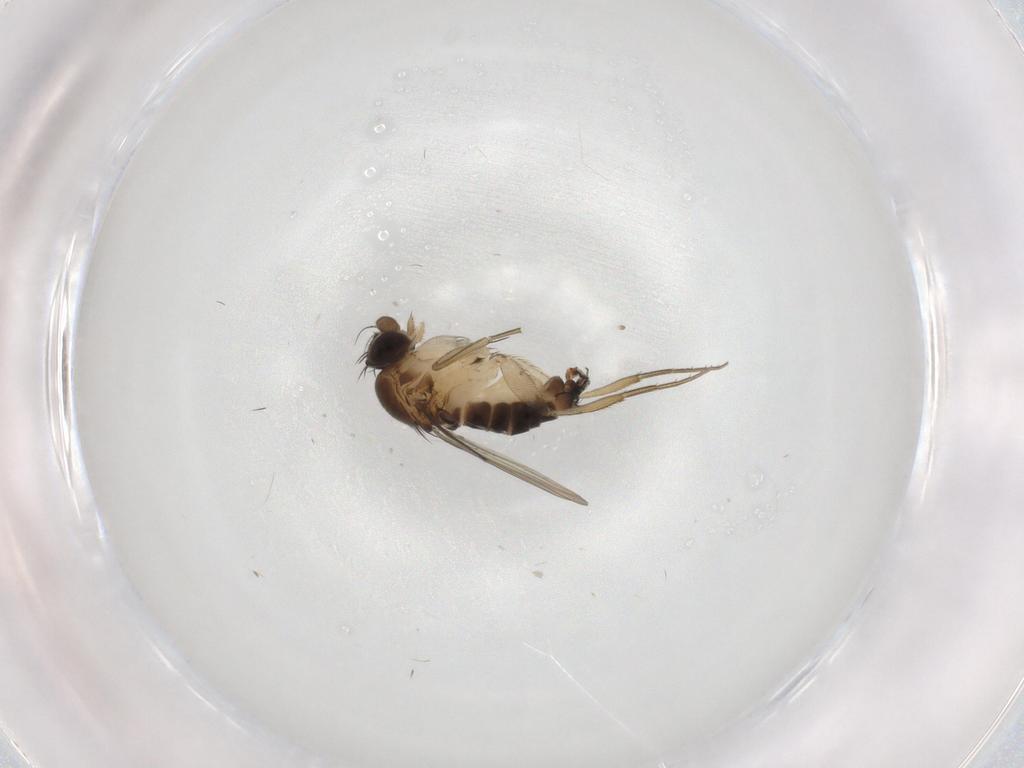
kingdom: Animalia
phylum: Arthropoda
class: Insecta
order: Diptera
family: Phoridae
